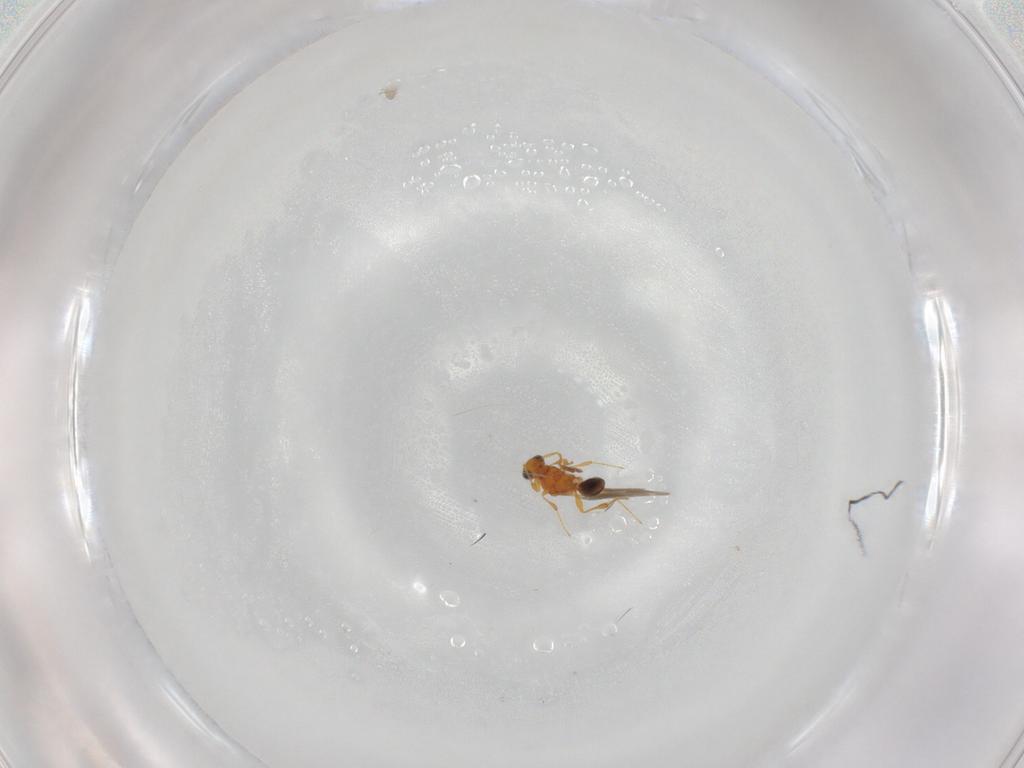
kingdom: Animalia
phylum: Arthropoda
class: Insecta
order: Hymenoptera
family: Platygastridae
